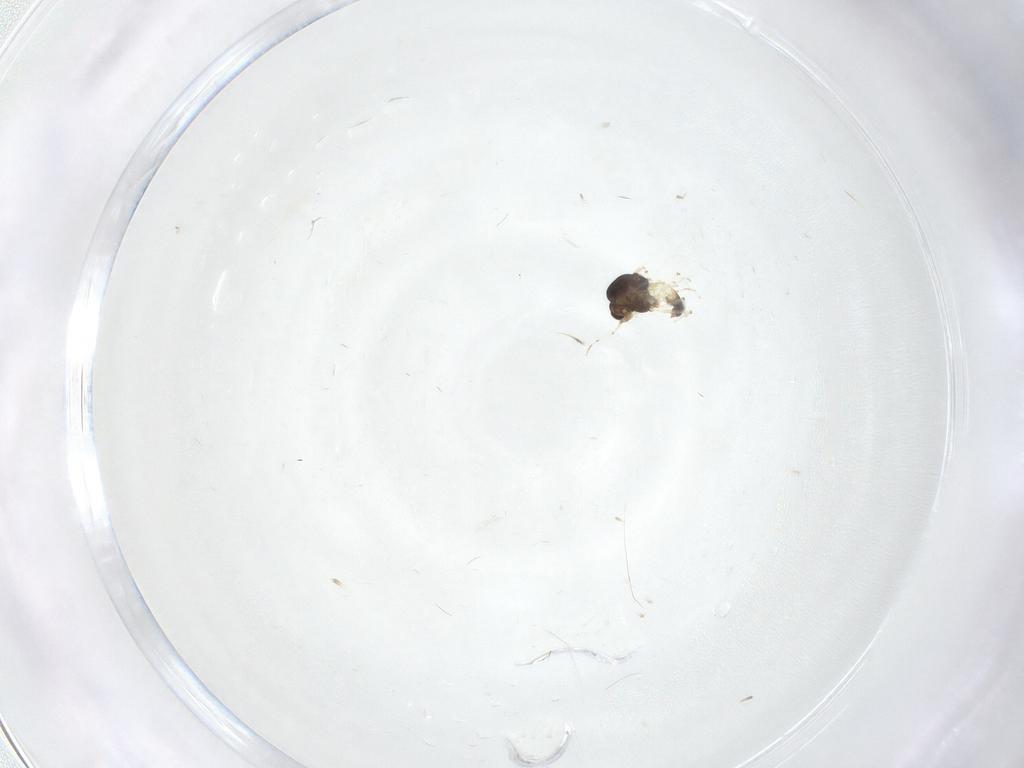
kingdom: Animalia
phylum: Arthropoda
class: Insecta
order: Diptera
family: Chironomidae
